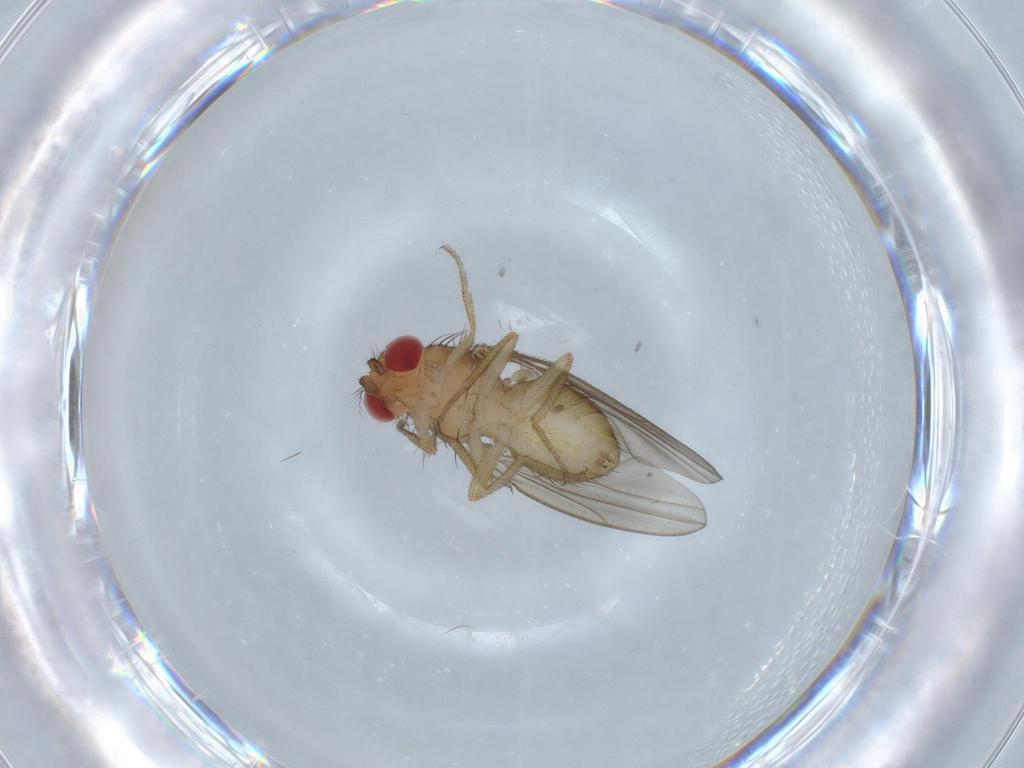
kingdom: Animalia
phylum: Arthropoda
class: Insecta
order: Diptera
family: Drosophilidae
